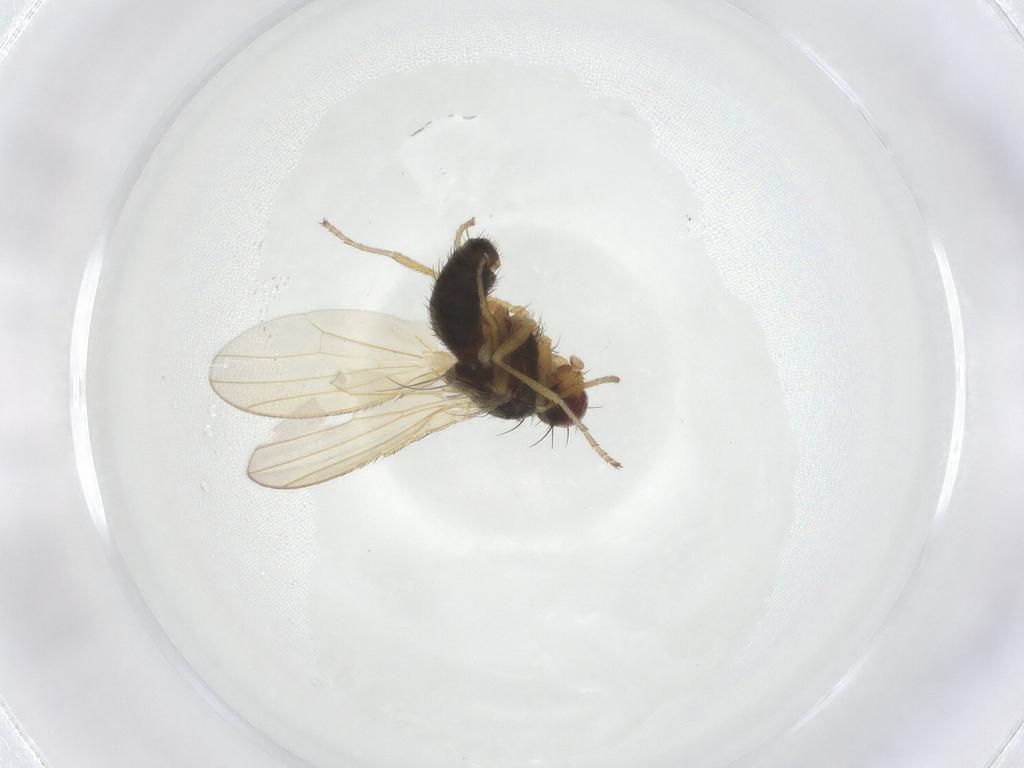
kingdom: Animalia
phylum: Arthropoda
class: Insecta
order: Diptera
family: Heleomyzidae
